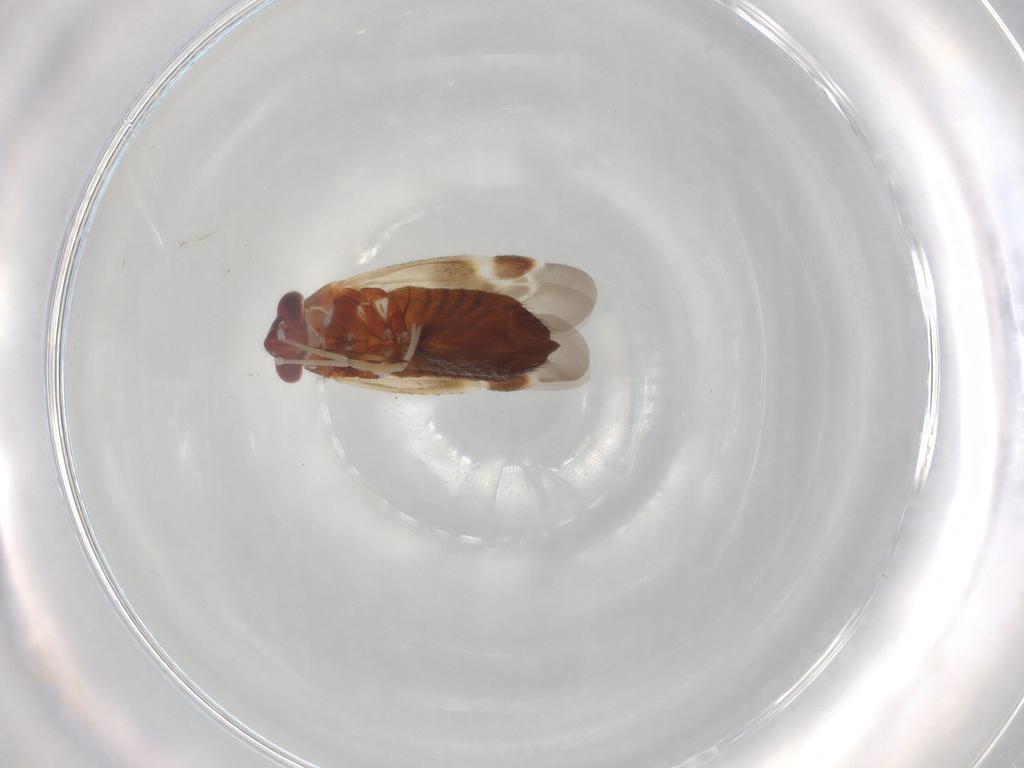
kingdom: Animalia
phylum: Arthropoda
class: Insecta
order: Hemiptera
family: Miridae
